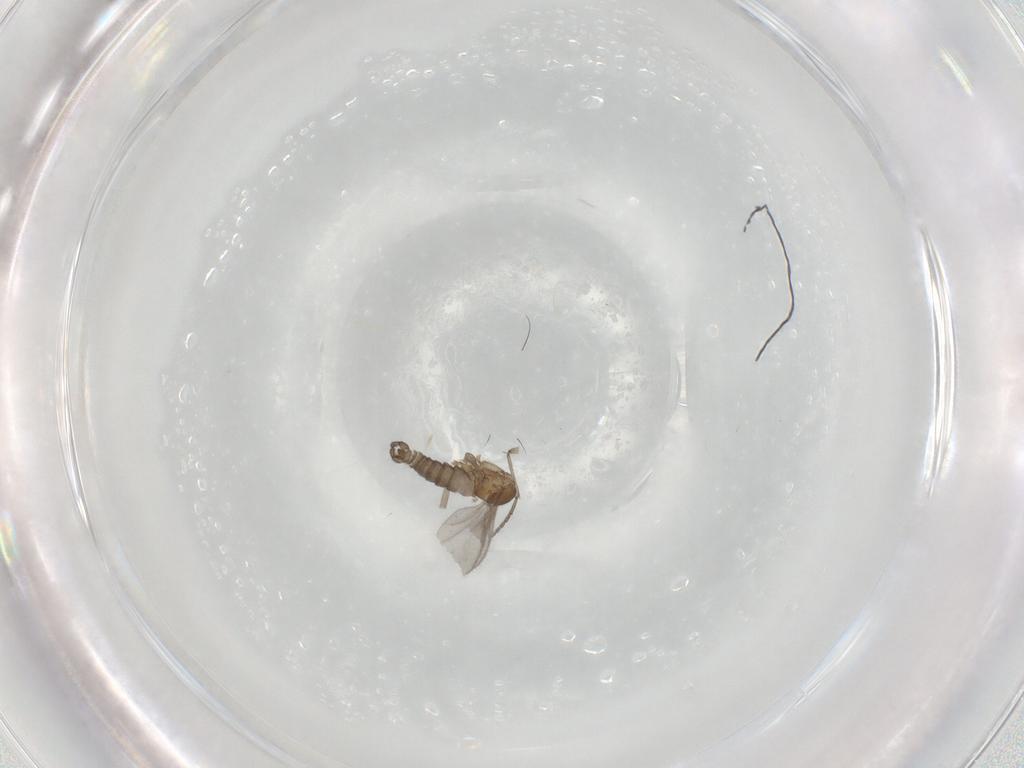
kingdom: Animalia
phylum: Arthropoda
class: Insecta
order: Diptera
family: Sciaridae
